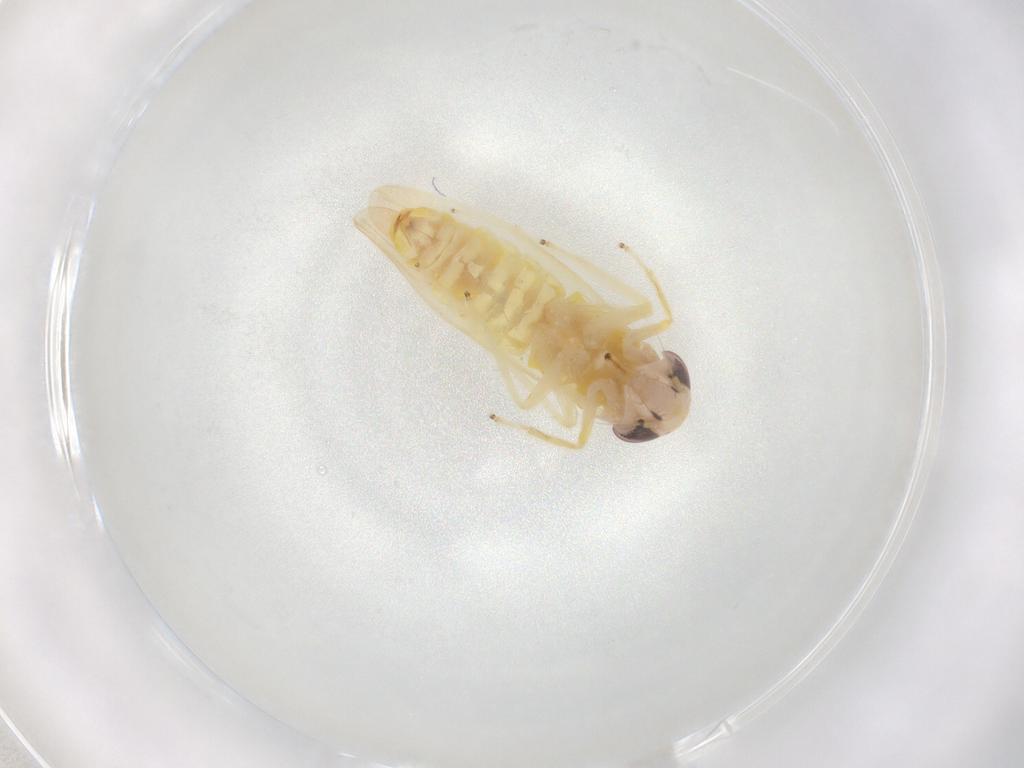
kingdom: Animalia
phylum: Arthropoda
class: Insecta
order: Hemiptera
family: Cicadellidae
